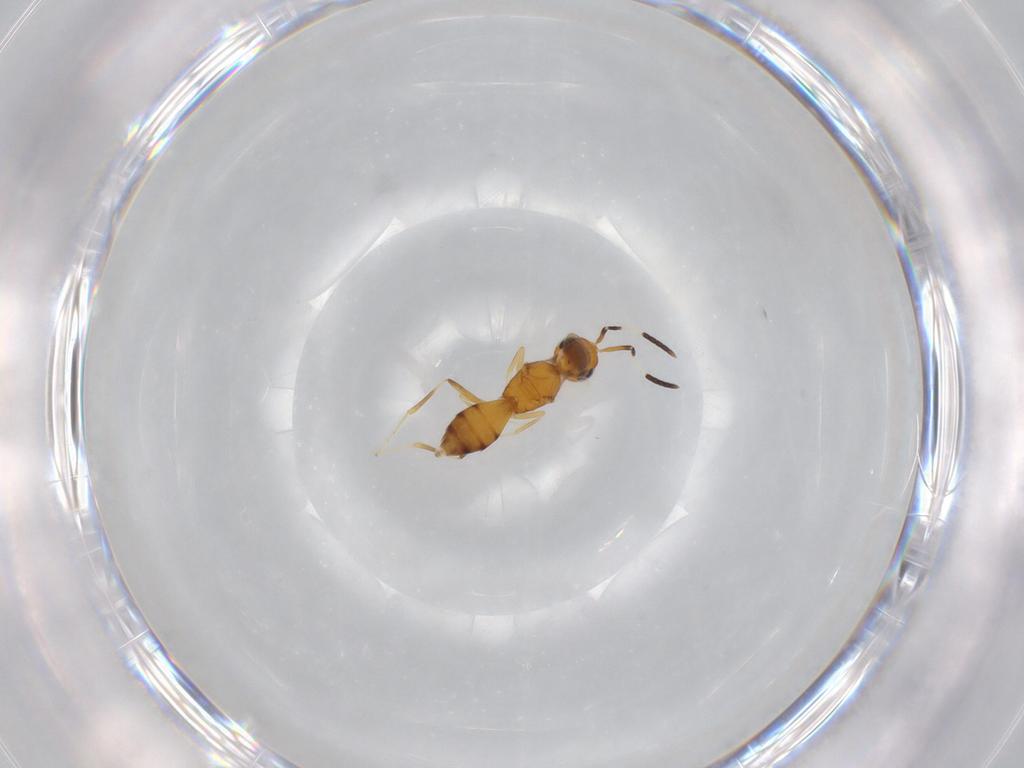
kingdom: Animalia
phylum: Arthropoda
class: Insecta
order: Hymenoptera
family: Scelionidae
